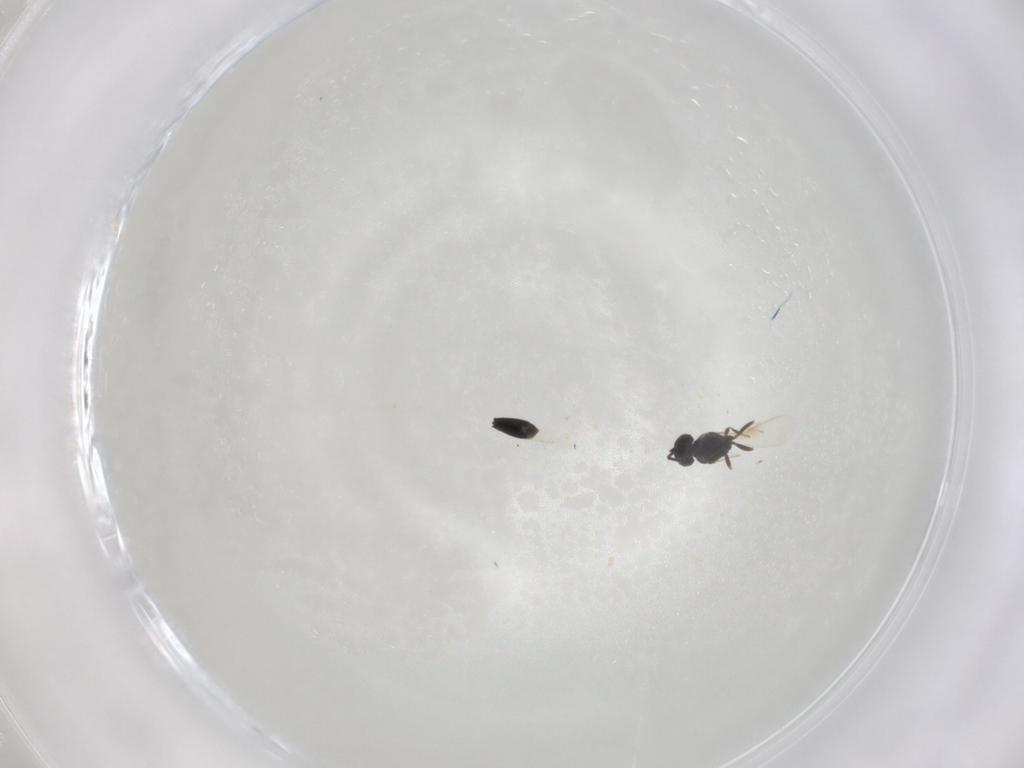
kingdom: Animalia
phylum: Arthropoda
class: Insecta
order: Hymenoptera
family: Scelionidae
